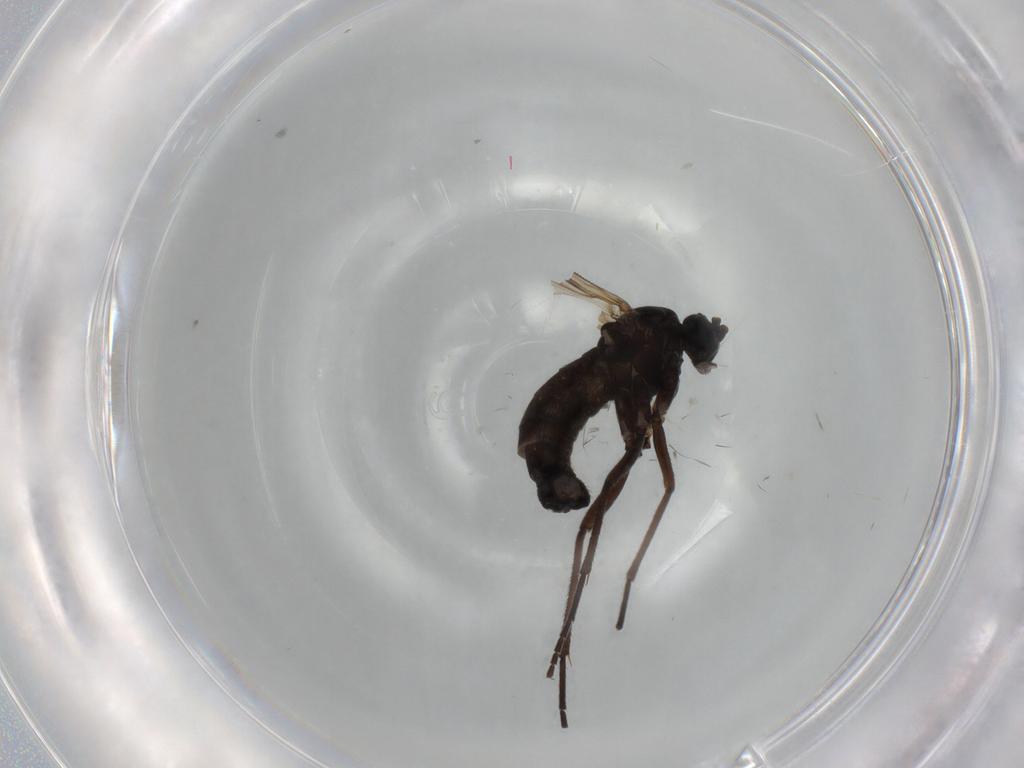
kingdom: Animalia
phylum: Arthropoda
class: Insecta
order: Diptera
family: Sciaridae
